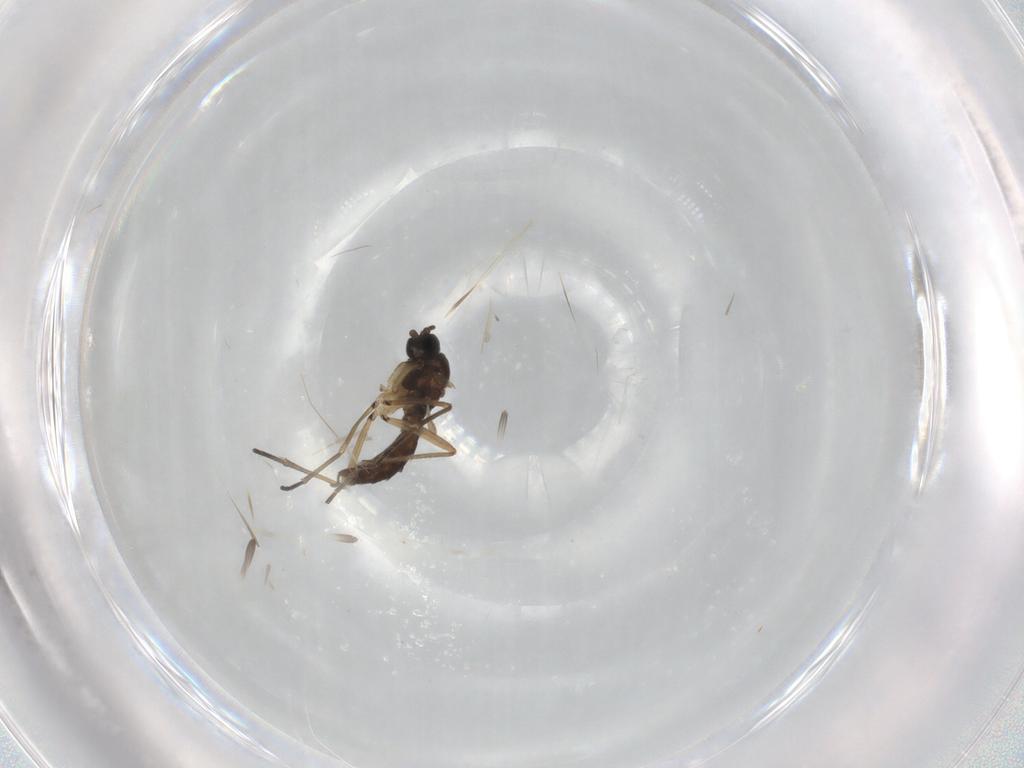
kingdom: Animalia
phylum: Arthropoda
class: Insecta
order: Diptera
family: Sciaridae
